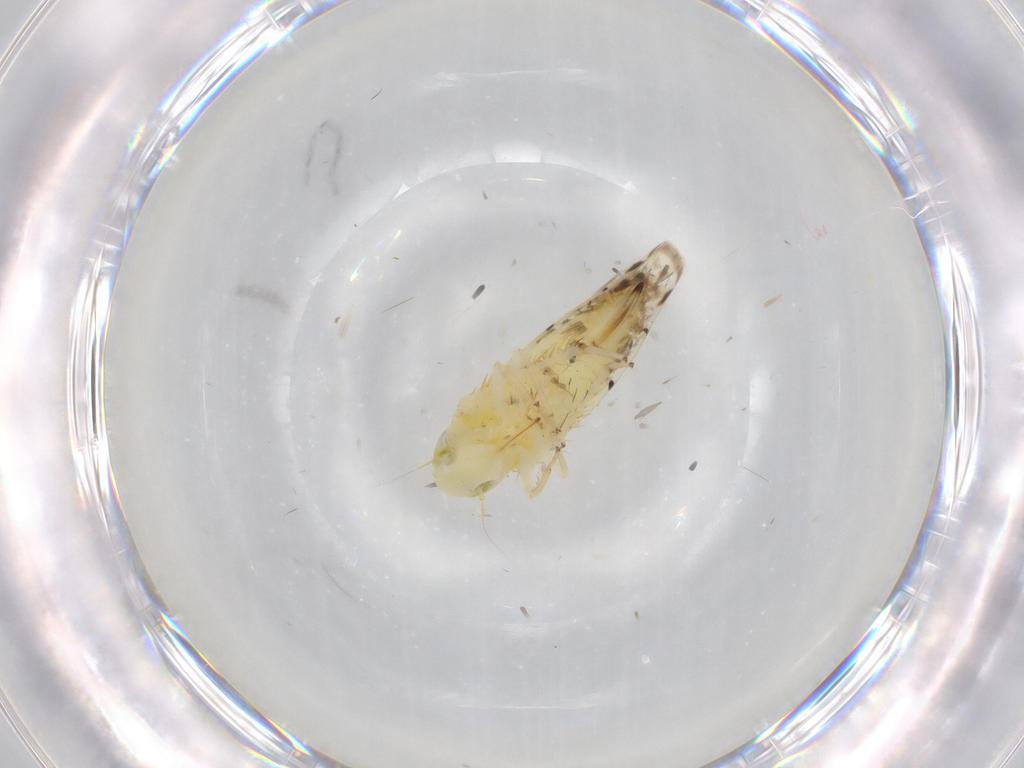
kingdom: Animalia
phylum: Arthropoda
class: Insecta
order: Hemiptera
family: Cicadellidae
